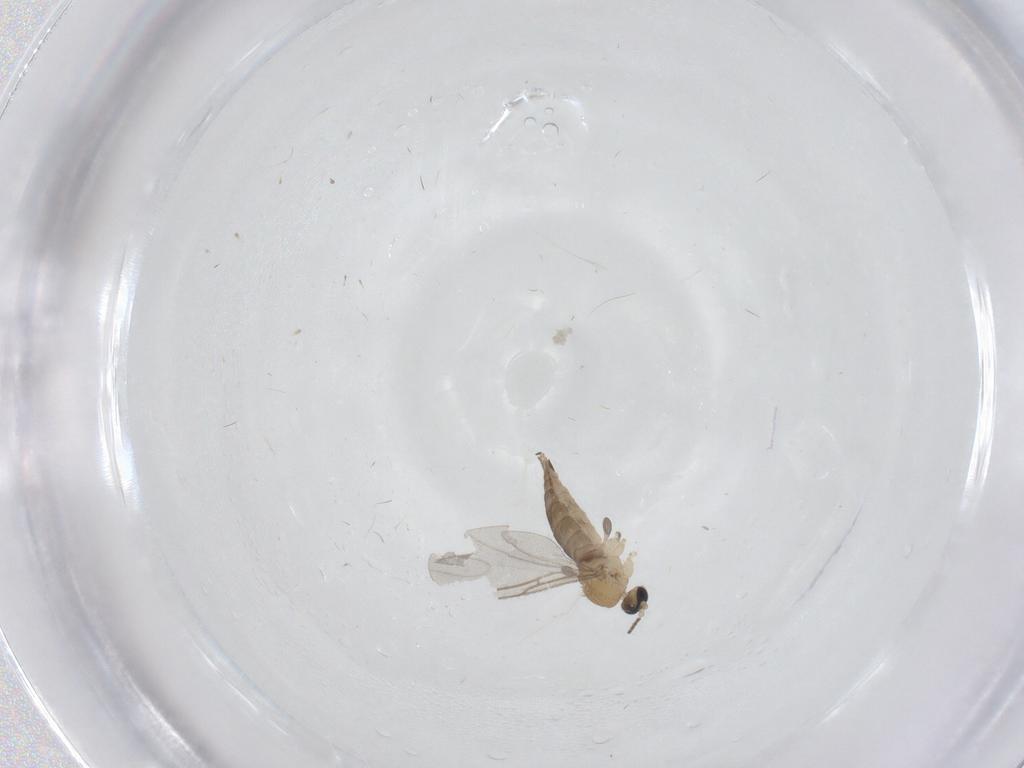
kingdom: Animalia
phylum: Arthropoda
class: Insecta
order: Diptera
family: Sciaridae
